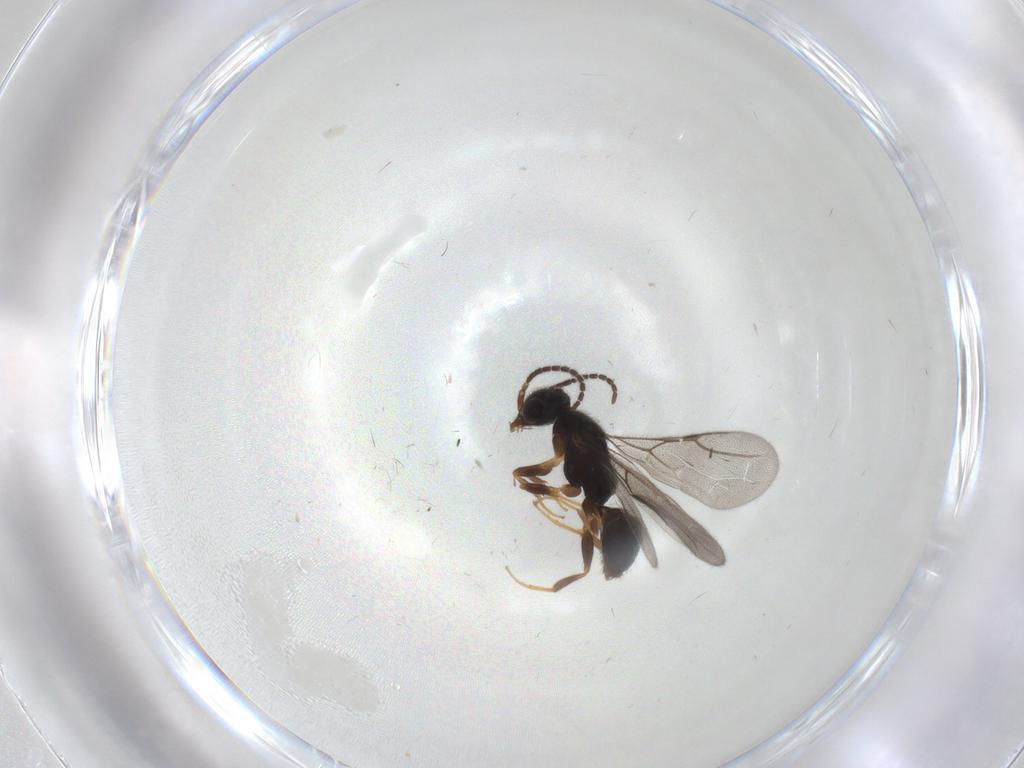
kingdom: Animalia
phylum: Arthropoda
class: Insecta
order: Hymenoptera
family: Bethylidae
